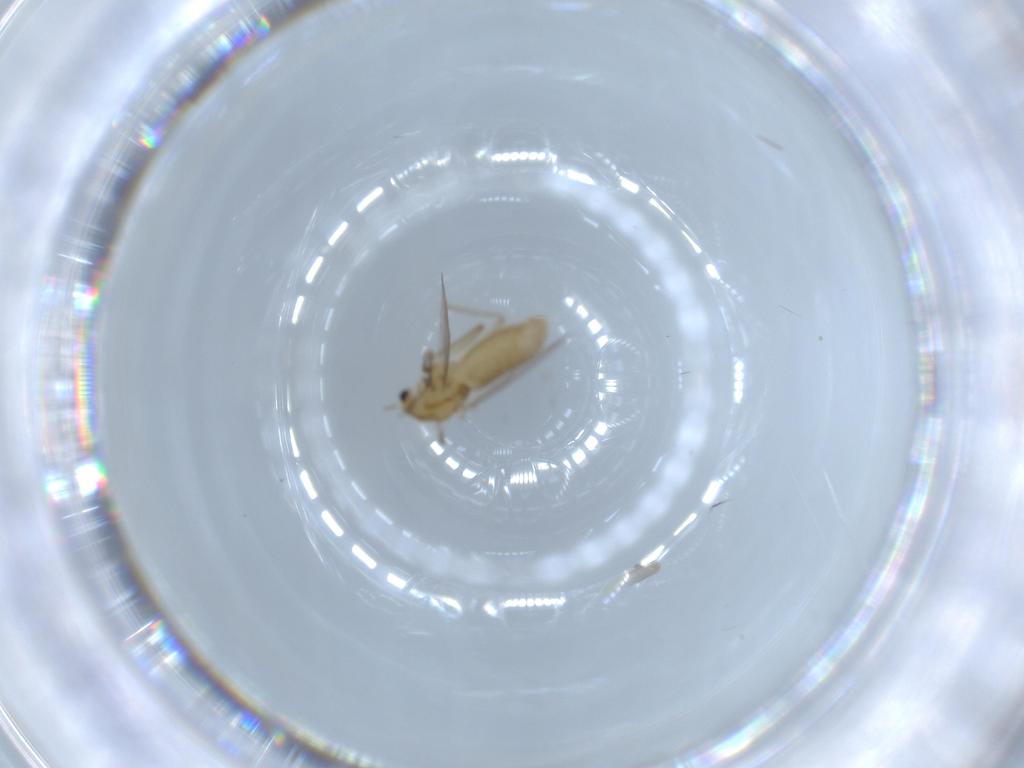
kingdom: Animalia
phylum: Arthropoda
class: Insecta
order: Diptera
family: Chironomidae
